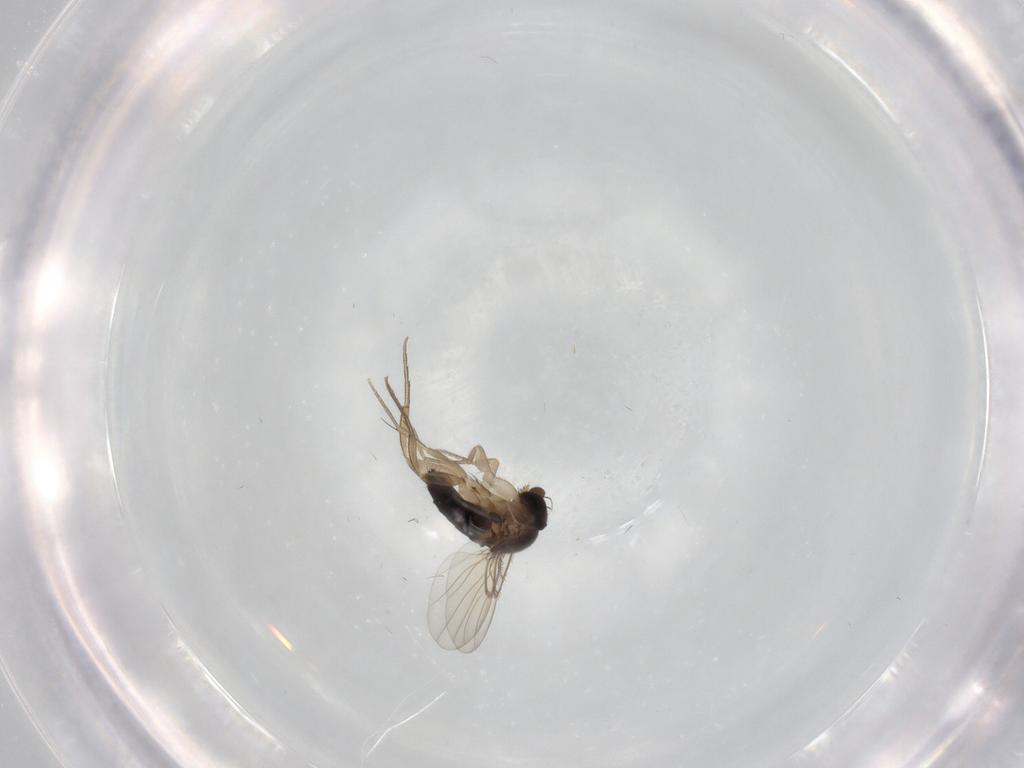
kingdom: Animalia
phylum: Arthropoda
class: Insecta
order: Diptera
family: Phoridae
